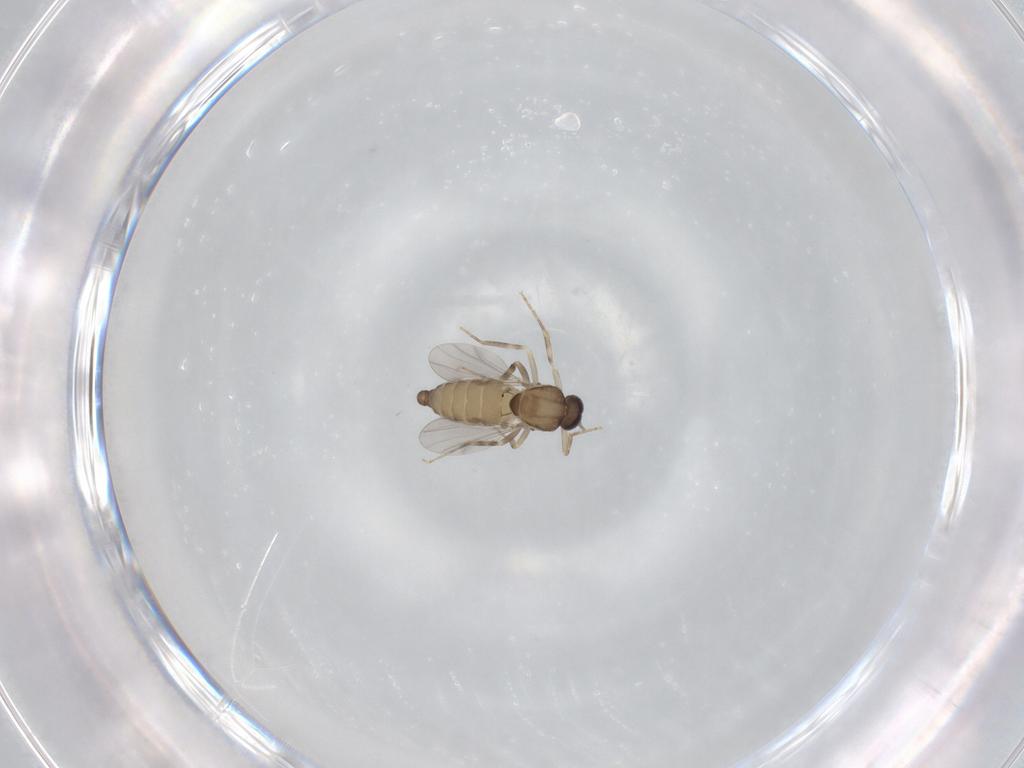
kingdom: Animalia
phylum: Arthropoda
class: Insecta
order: Diptera
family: Ceratopogonidae
